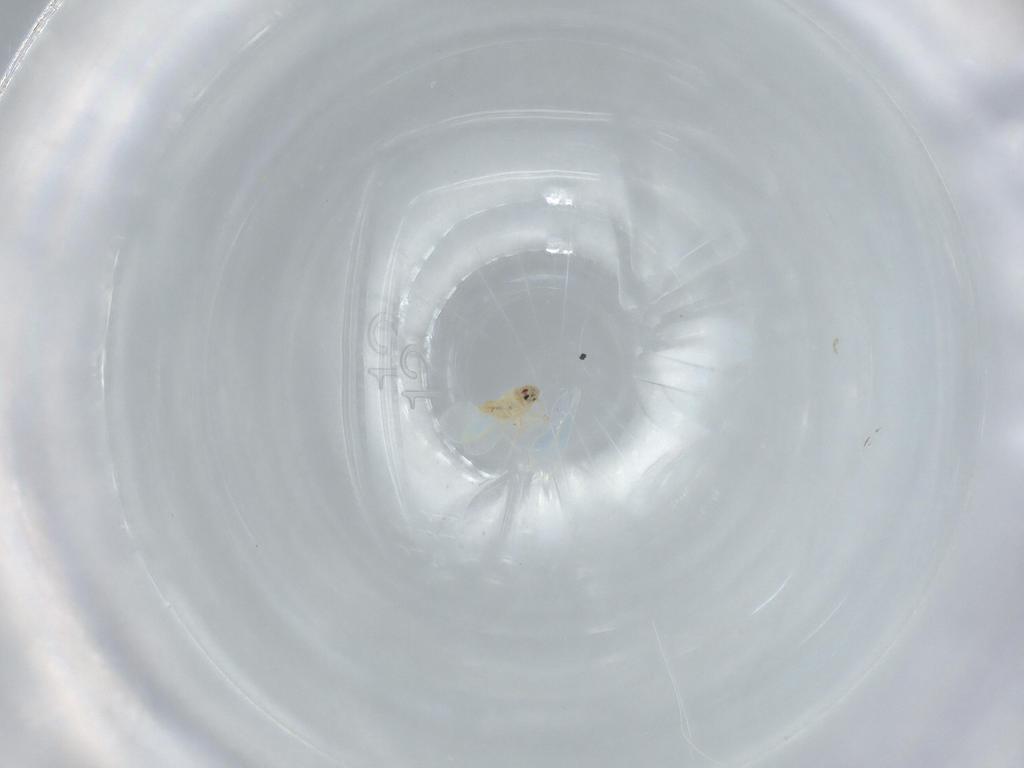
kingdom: Animalia
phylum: Arthropoda
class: Insecta
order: Hemiptera
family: Aleyrodidae
